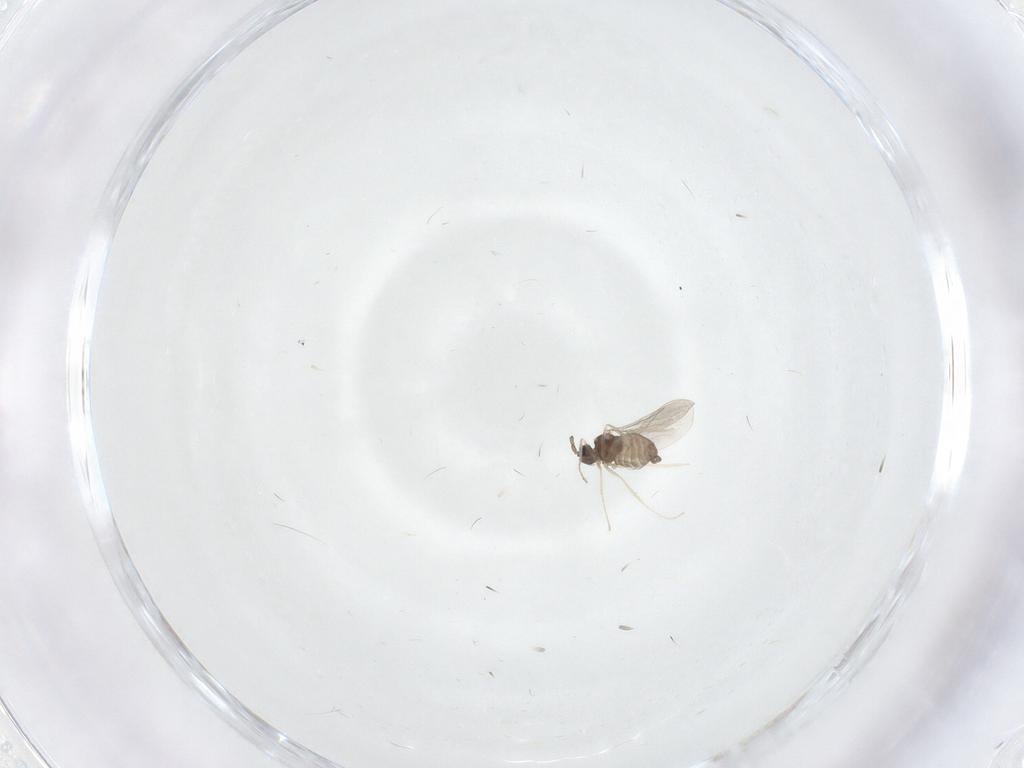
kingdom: Animalia
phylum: Arthropoda
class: Insecta
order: Diptera
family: Cecidomyiidae
